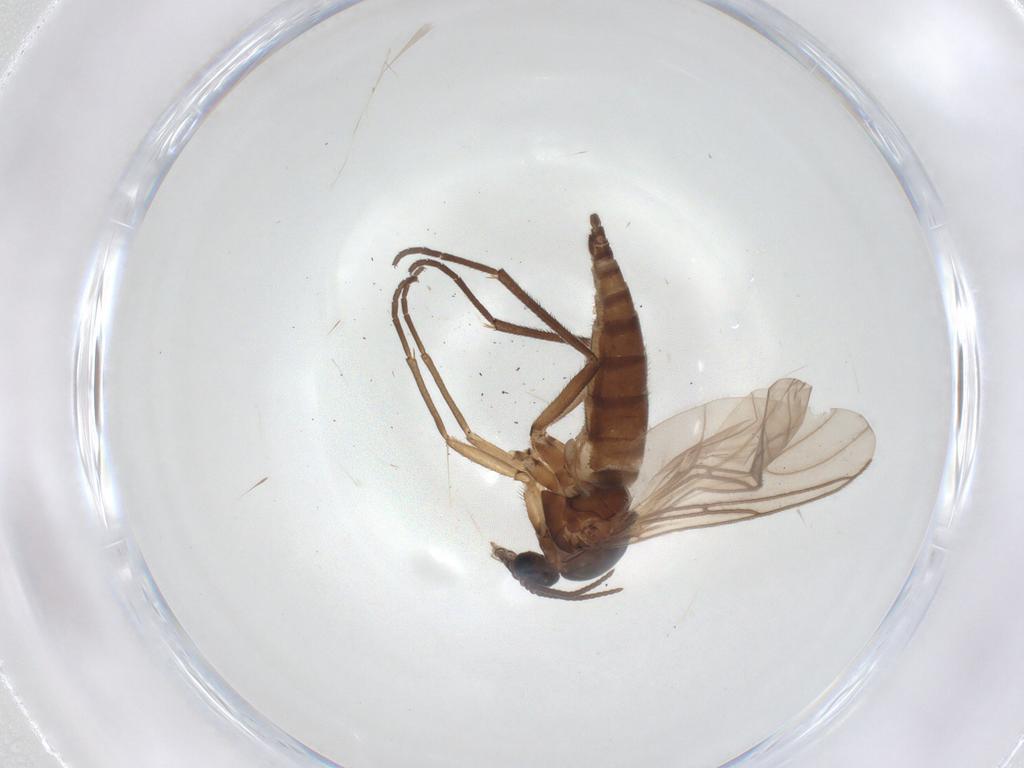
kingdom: Animalia
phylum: Arthropoda
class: Insecta
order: Diptera
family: Sciaridae
